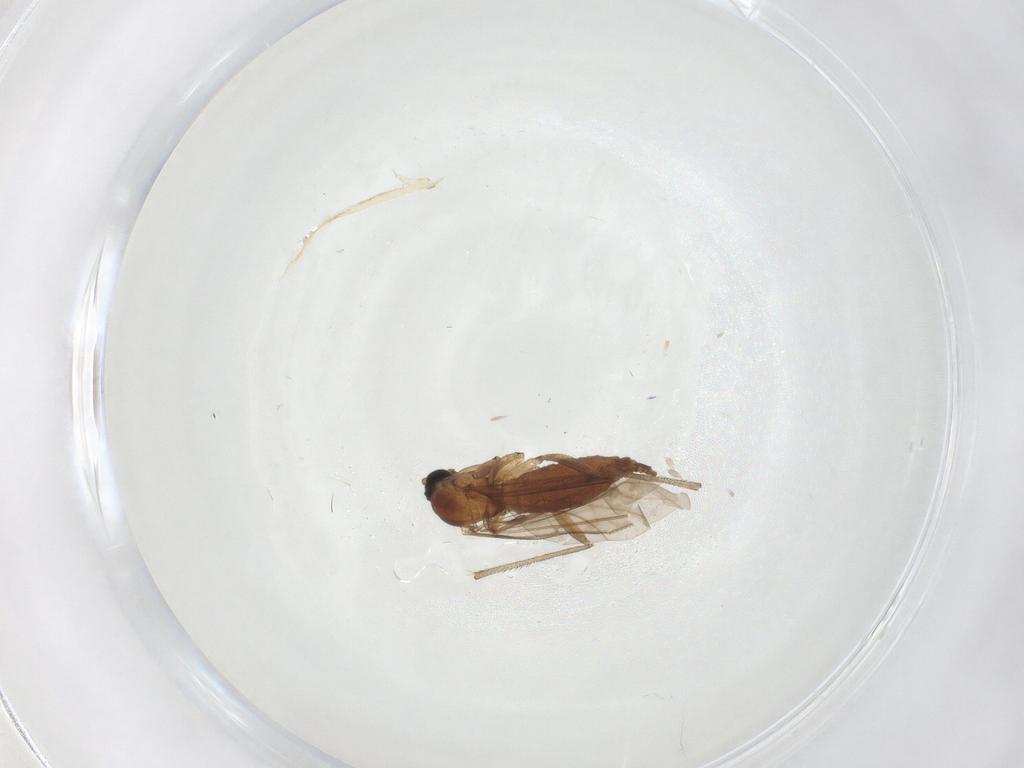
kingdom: Animalia
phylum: Arthropoda
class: Insecta
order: Diptera
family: Sciaridae
